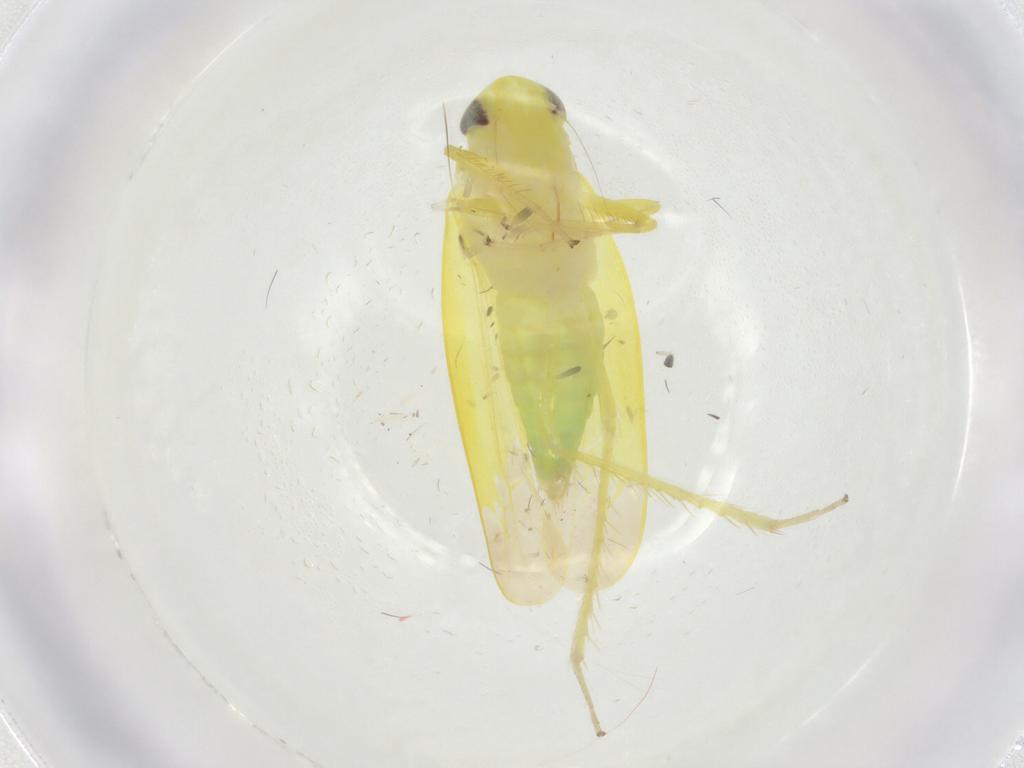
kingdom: Animalia
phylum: Arthropoda
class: Insecta
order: Hemiptera
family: Cicadellidae
